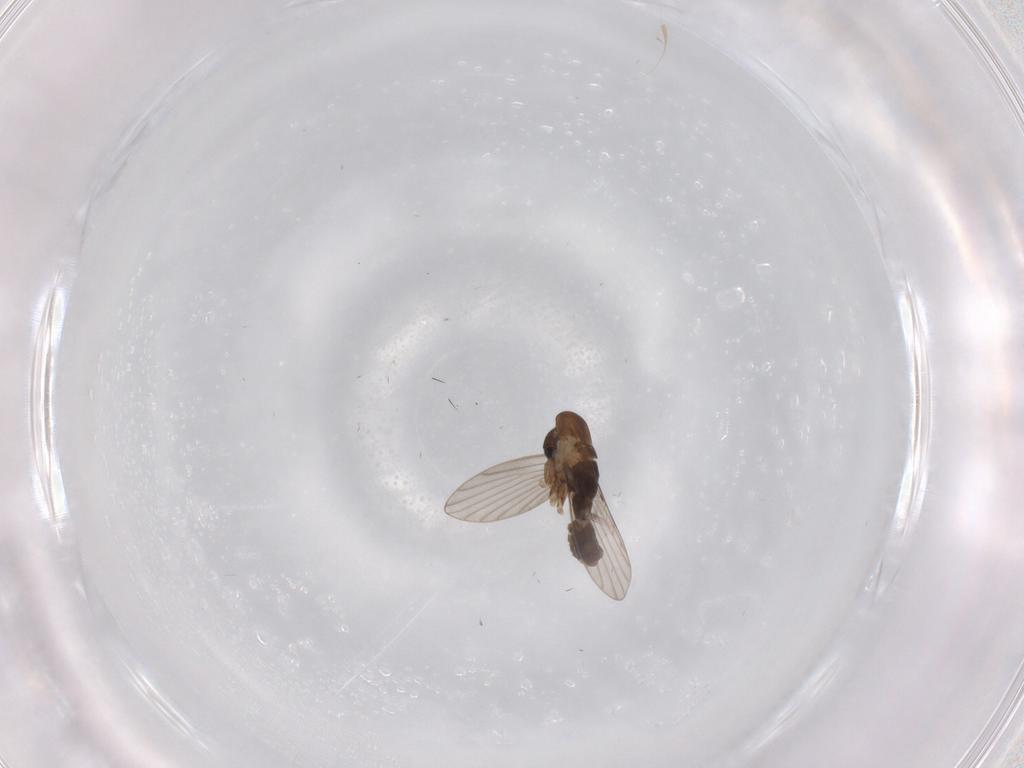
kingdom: Animalia
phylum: Arthropoda
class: Insecta
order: Diptera
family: Psychodidae
